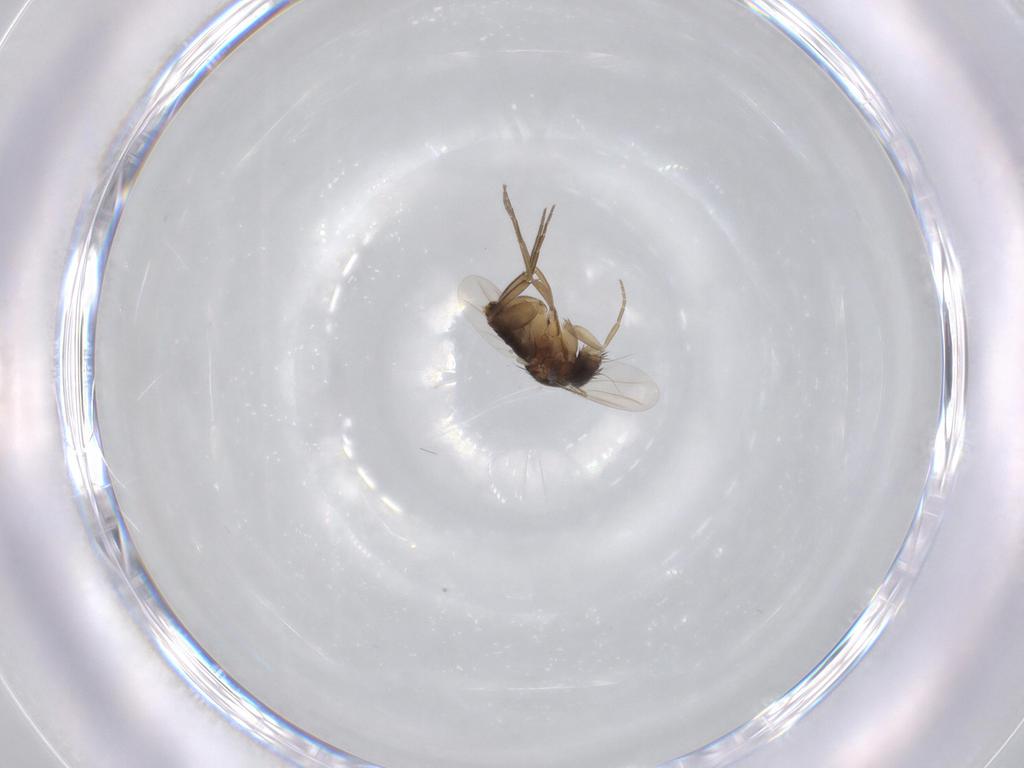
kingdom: Animalia
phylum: Arthropoda
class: Insecta
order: Diptera
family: Phoridae
